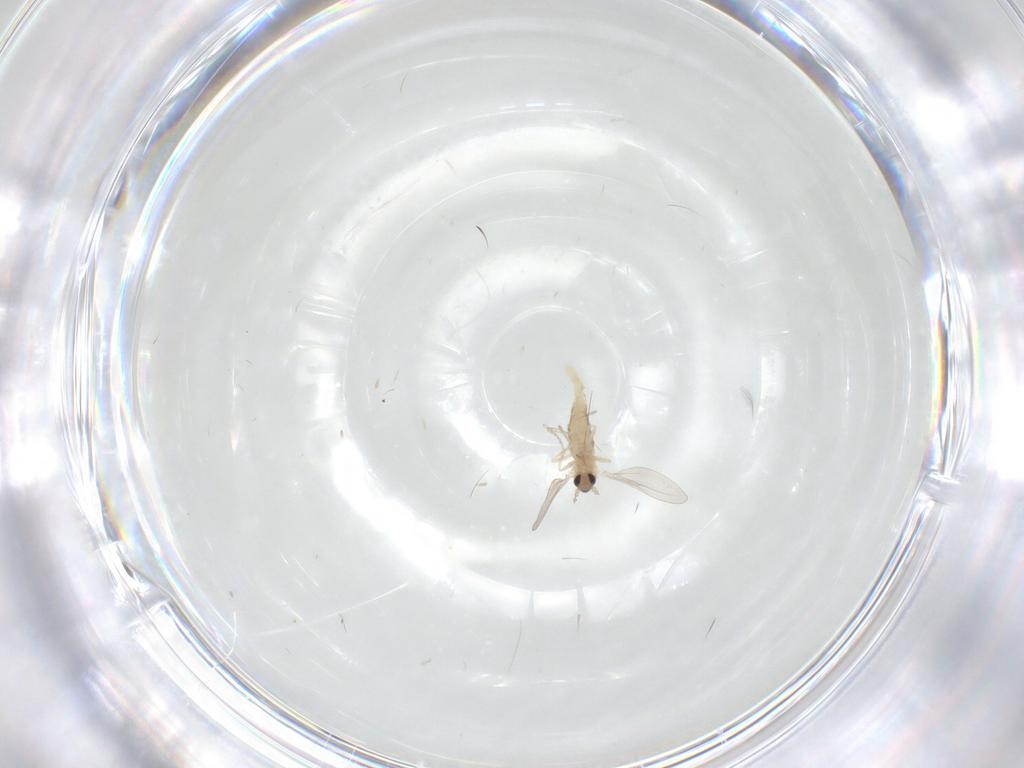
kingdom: Animalia
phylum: Arthropoda
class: Insecta
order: Diptera
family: Cecidomyiidae
